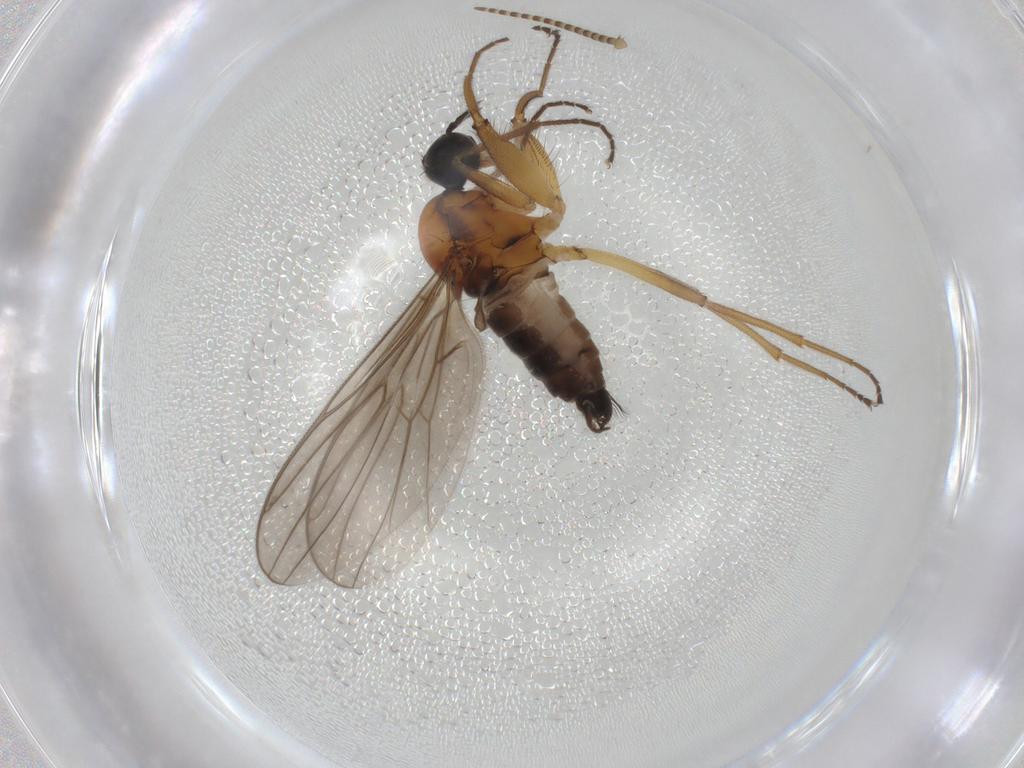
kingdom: Animalia
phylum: Arthropoda
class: Insecta
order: Diptera
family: Hybotidae
